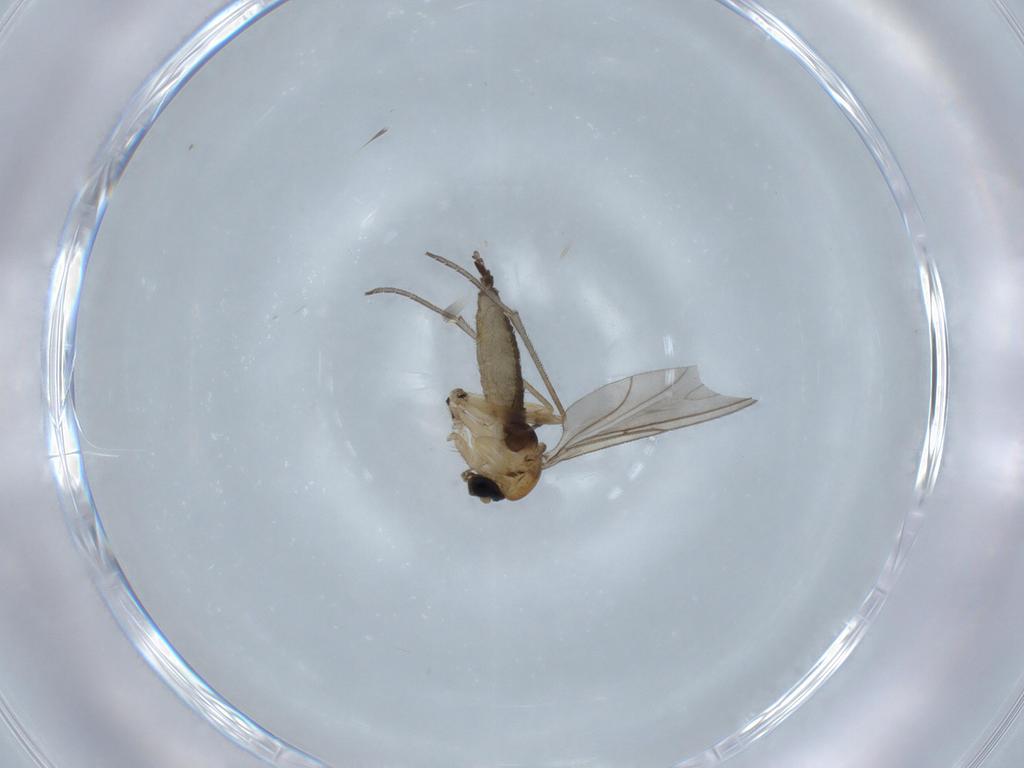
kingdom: Animalia
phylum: Arthropoda
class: Insecta
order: Diptera
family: Sciaridae
